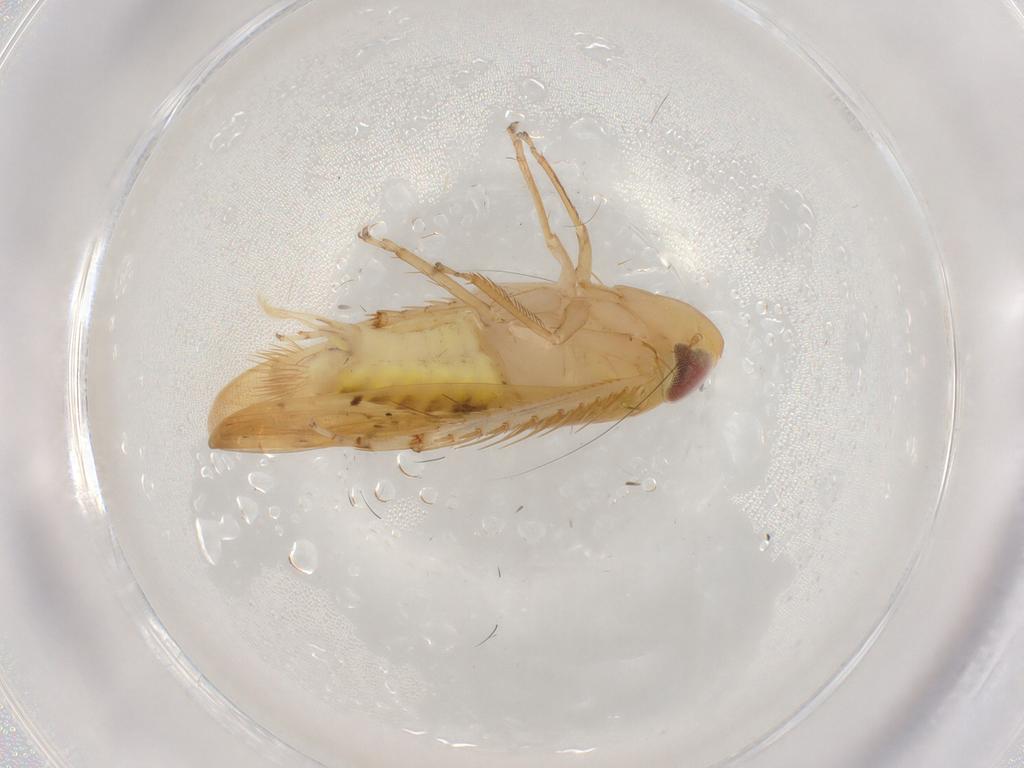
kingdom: Animalia
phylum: Arthropoda
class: Insecta
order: Hemiptera
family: Cicadellidae
